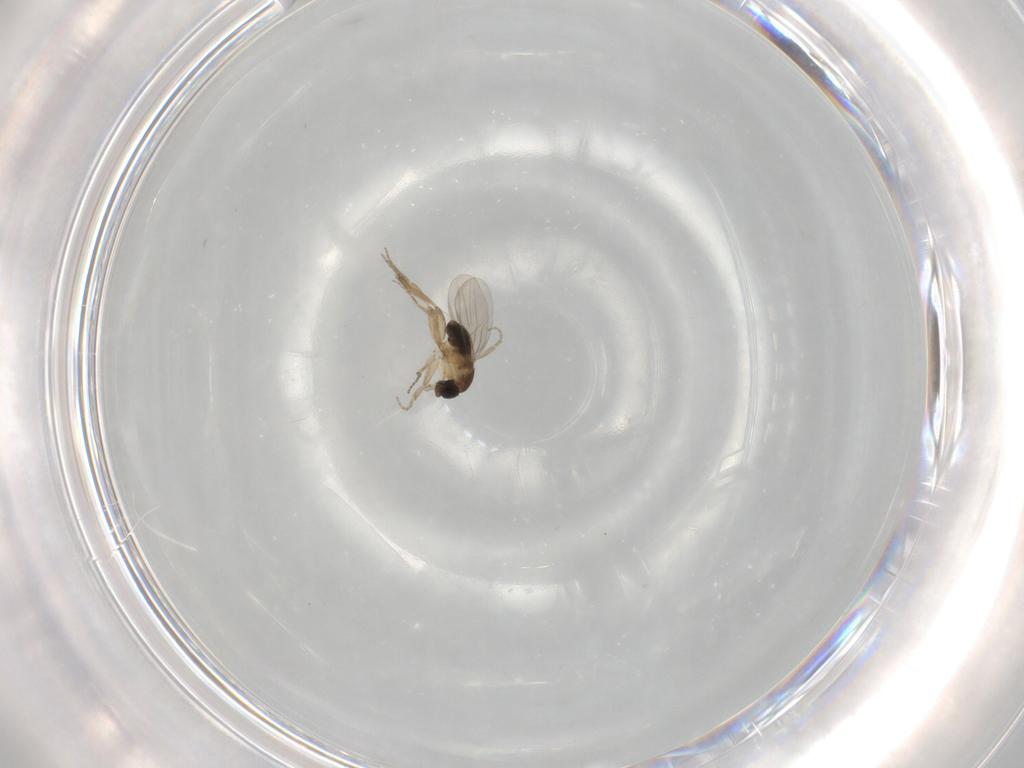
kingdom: Animalia
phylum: Arthropoda
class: Insecta
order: Diptera
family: Phoridae
